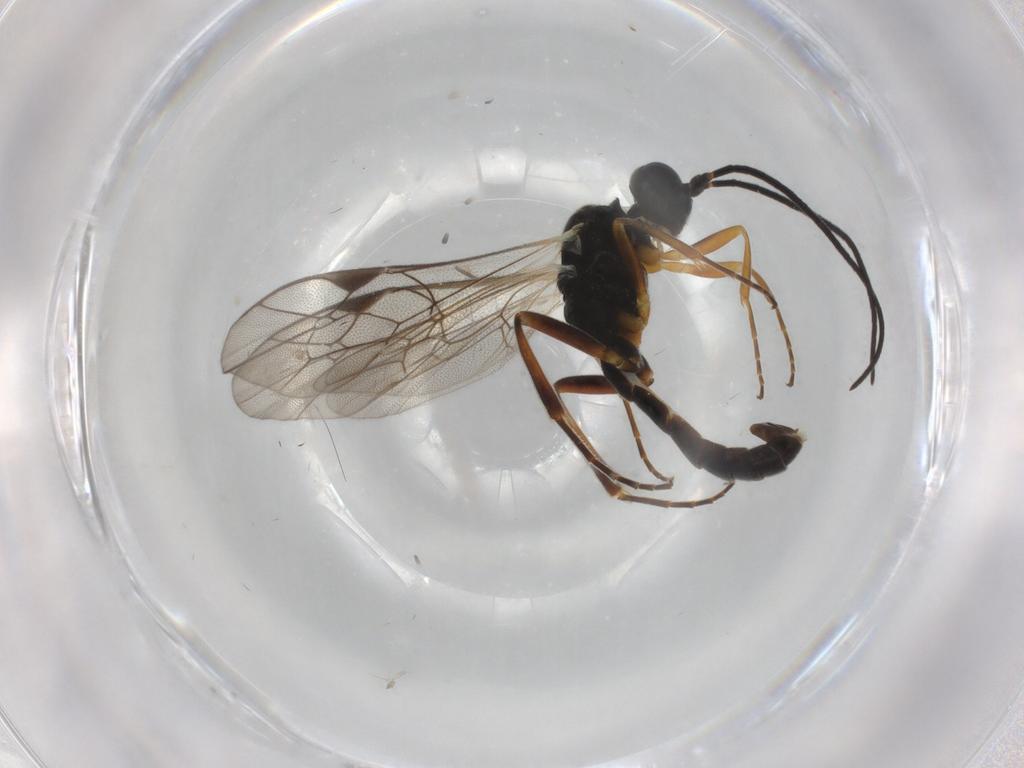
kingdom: Animalia
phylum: Arthropoda
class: Insecta
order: Hymenoptera
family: Ichneumonidae
